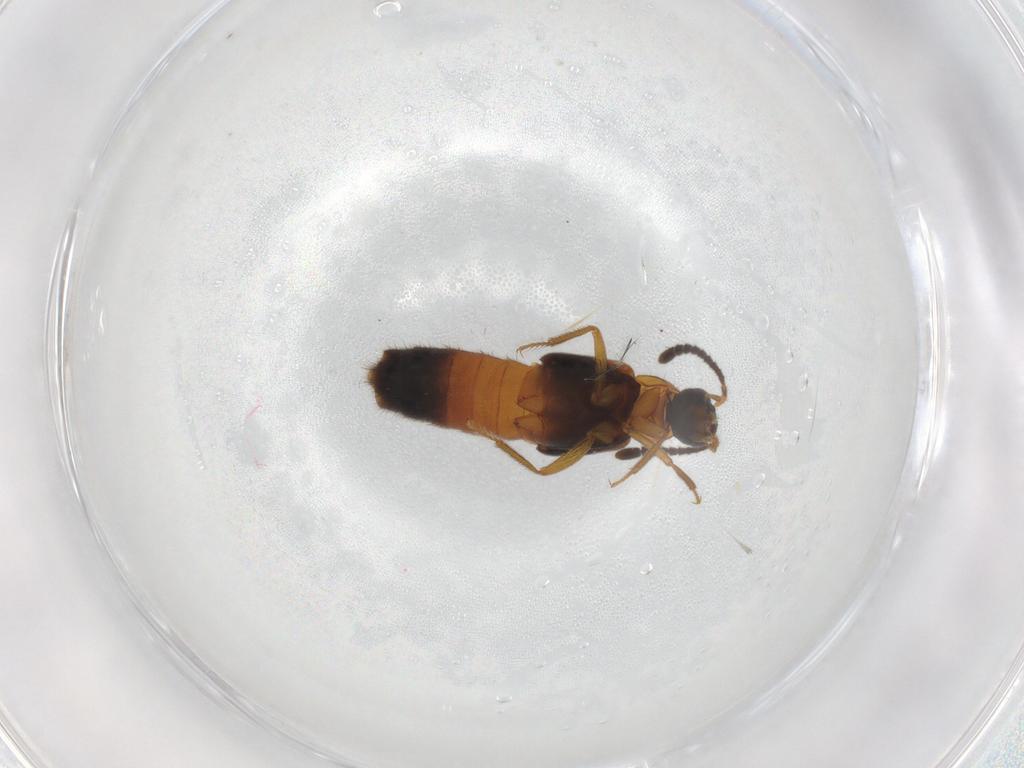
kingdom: Animalia
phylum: Arthropoda
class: Insecta
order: Coleoptera
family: Staphylinidae
